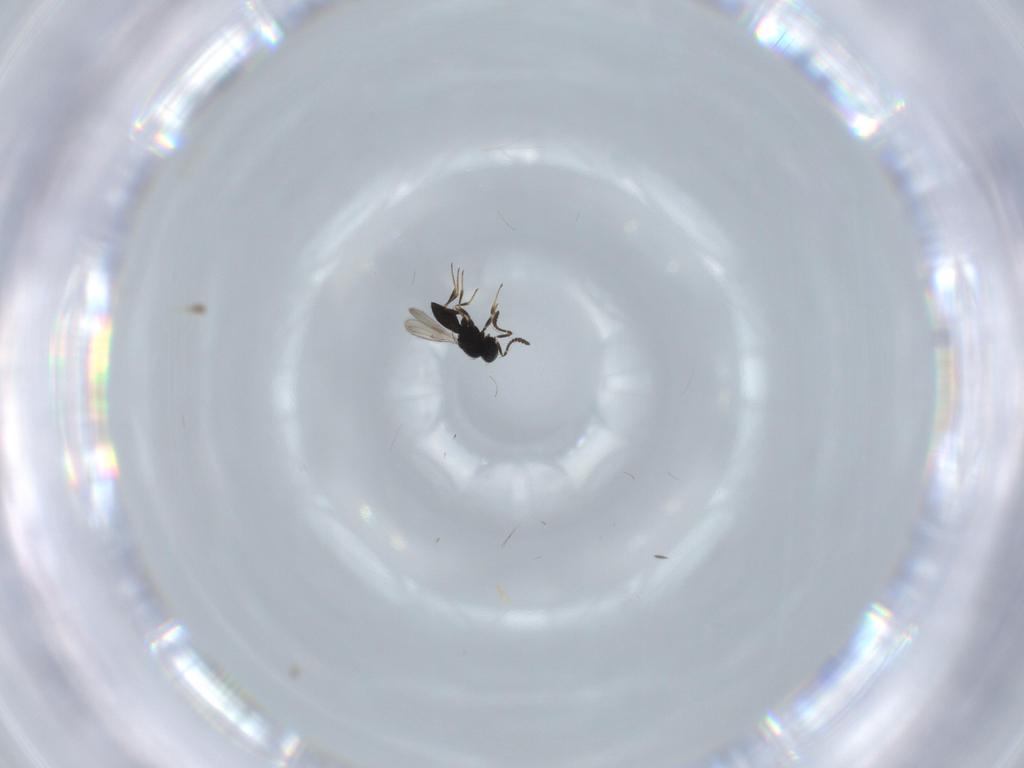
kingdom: Animalia
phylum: Arthropoda
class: Insecta
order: Hymenoptera
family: Scelionidae
